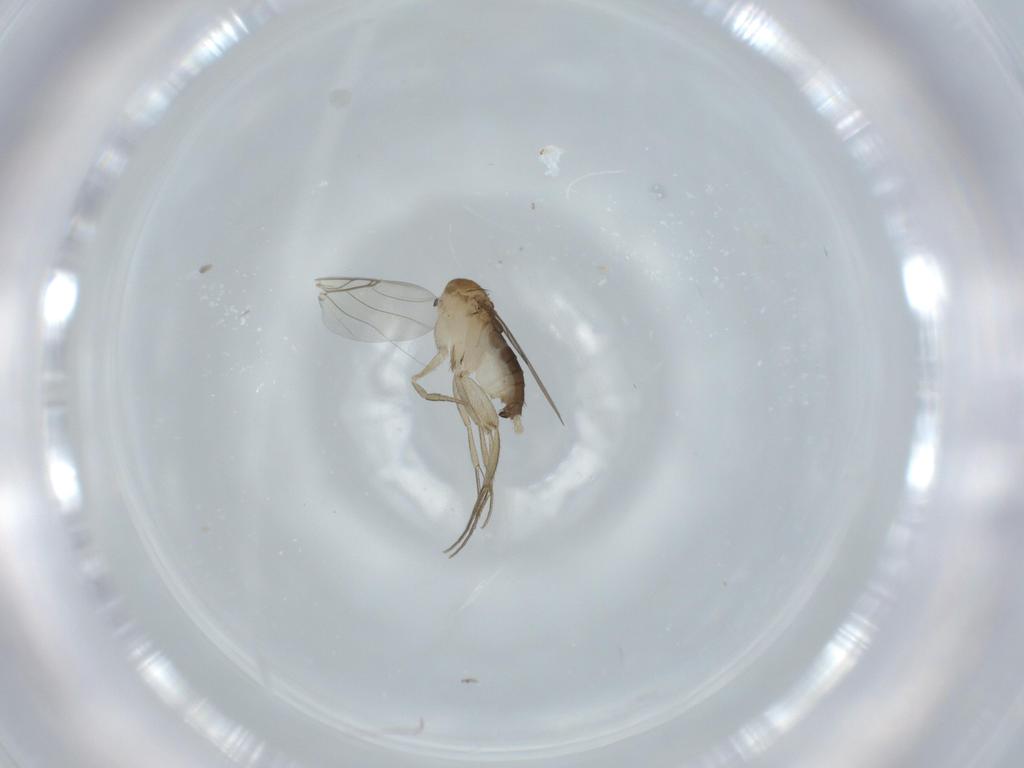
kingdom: Animalia
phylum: Arthropoda
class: Insecta
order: Diptera
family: Phoridae
